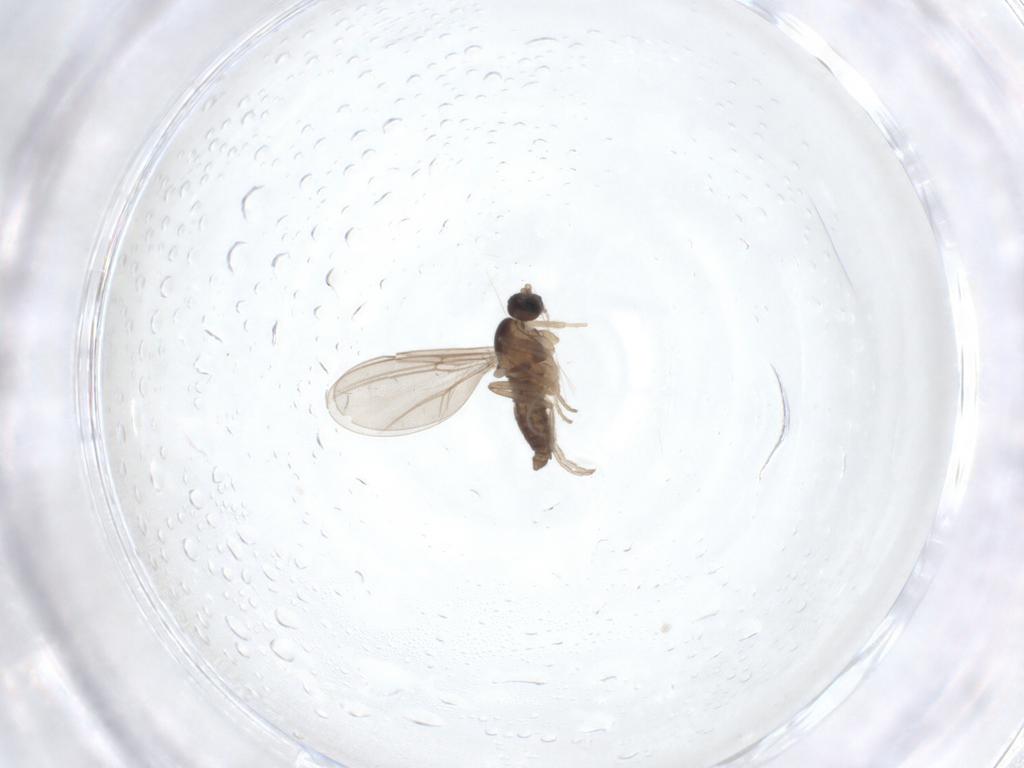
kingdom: Animalia
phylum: Arthropoda
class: Insecta
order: Diptera
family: Cecidomyiidae
